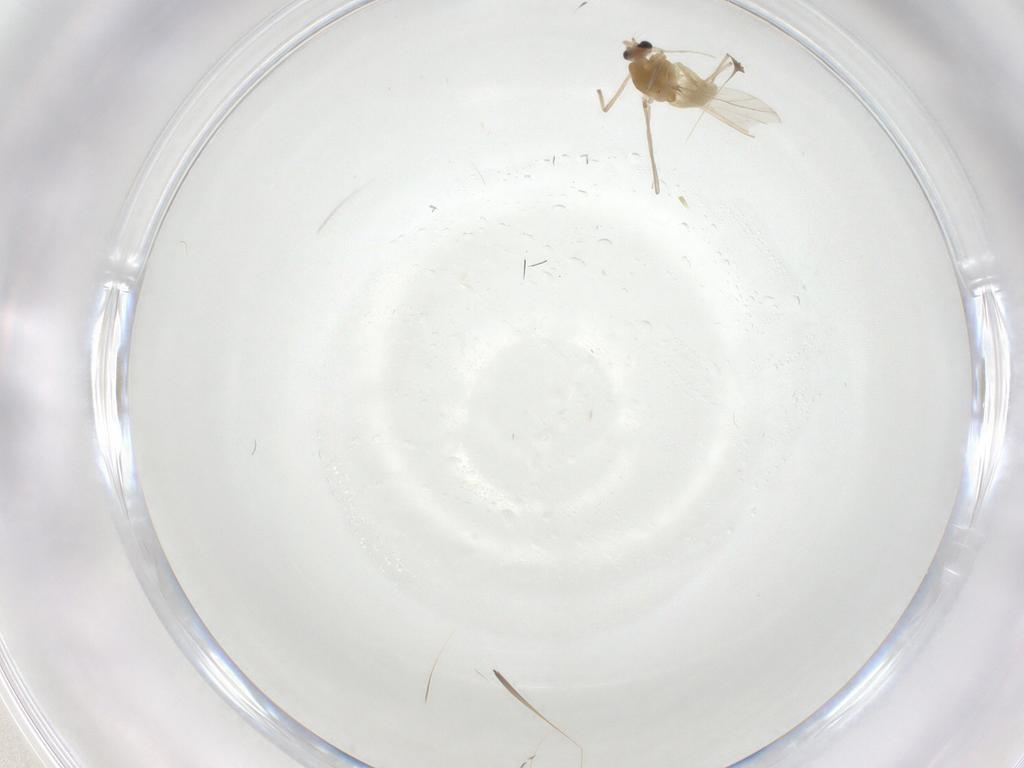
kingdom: Animalia
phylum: Arthropoda
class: Insecta
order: Diptera
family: Chironomidae
